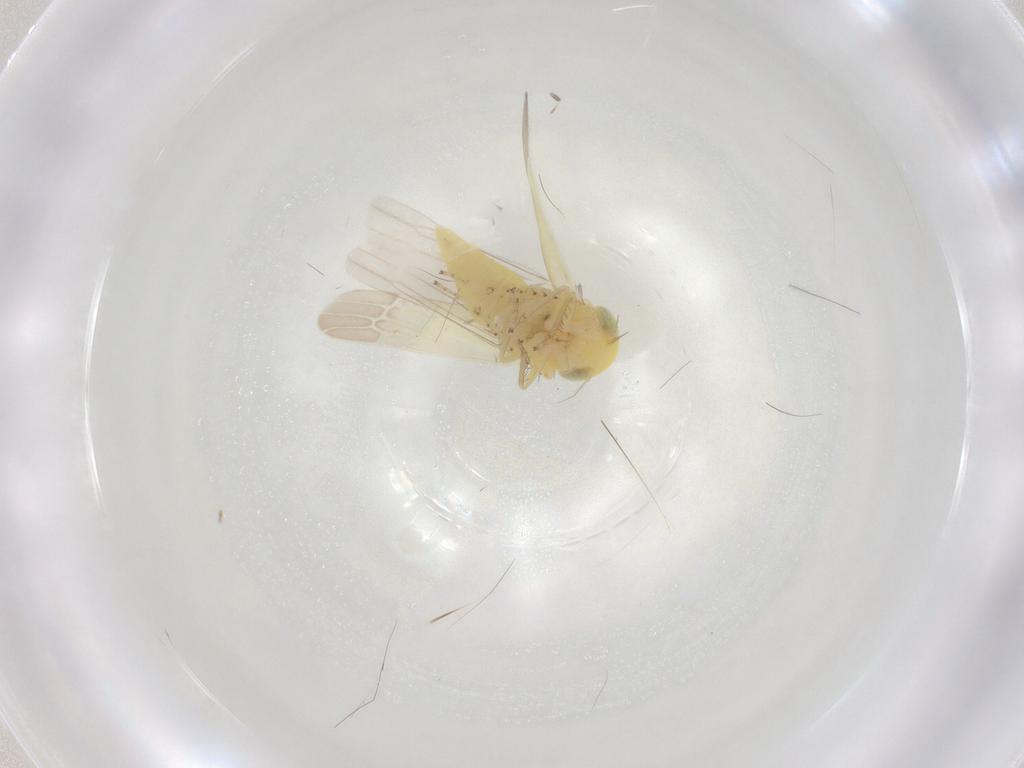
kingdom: Animalia
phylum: Arthropoda
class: Insecta
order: Hemiptera
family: Cicadellidae
